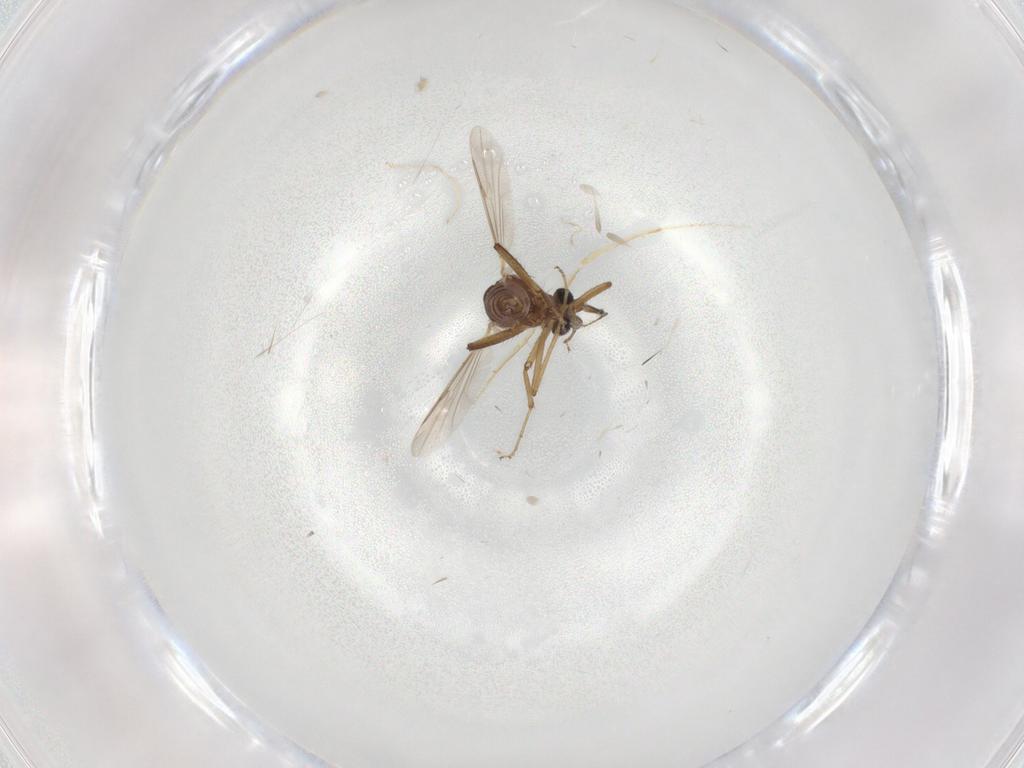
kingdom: Animalia
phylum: Arthropoda
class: Insecta
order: Diptera
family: Ceratopogonidae
